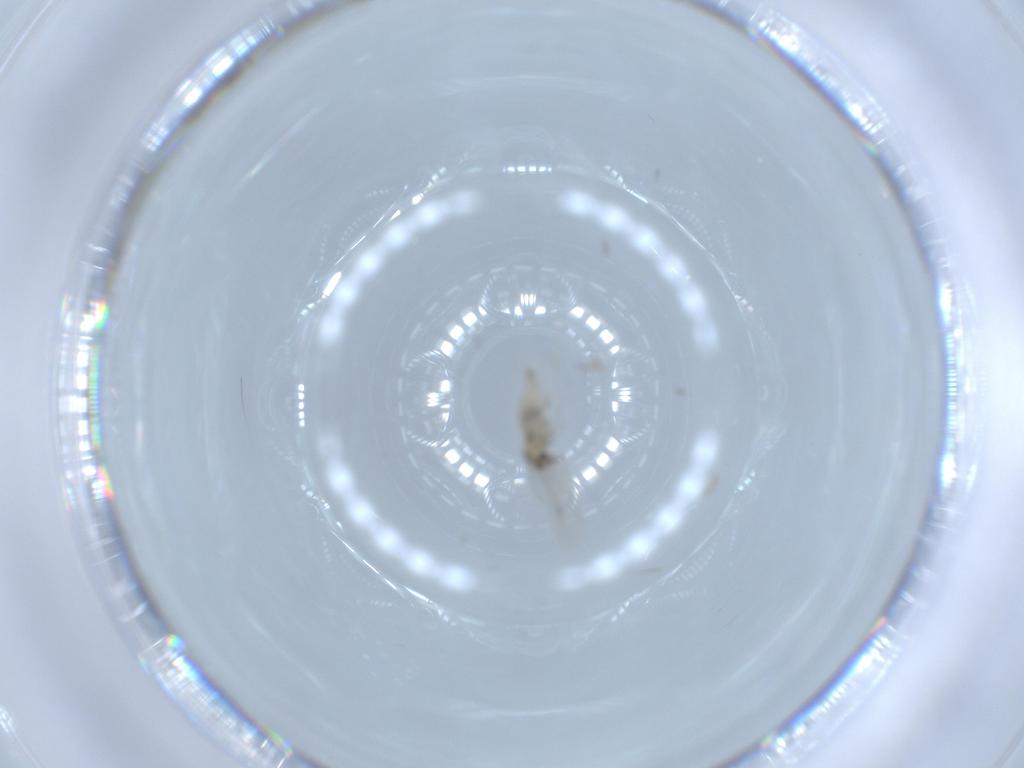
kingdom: Animalia
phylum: Arthropoda
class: Insecta
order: Diptera
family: Cecidomyiidae
